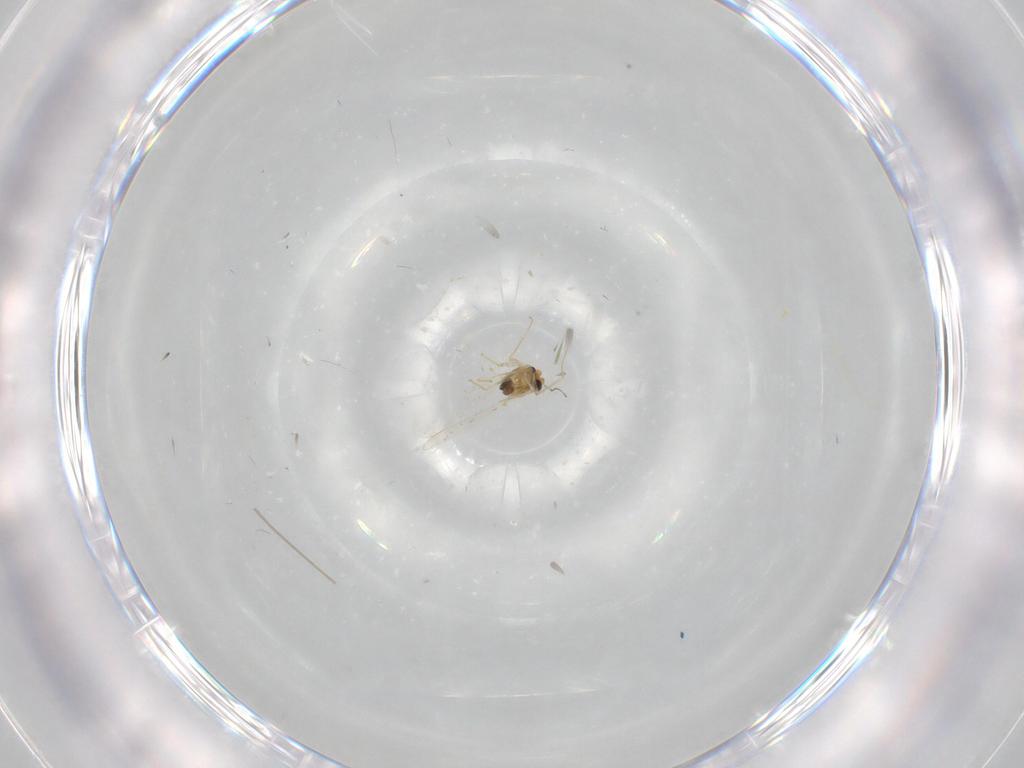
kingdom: Animalia
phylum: Arthropoda
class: Insecta
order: Diptera
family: Chironomidae
